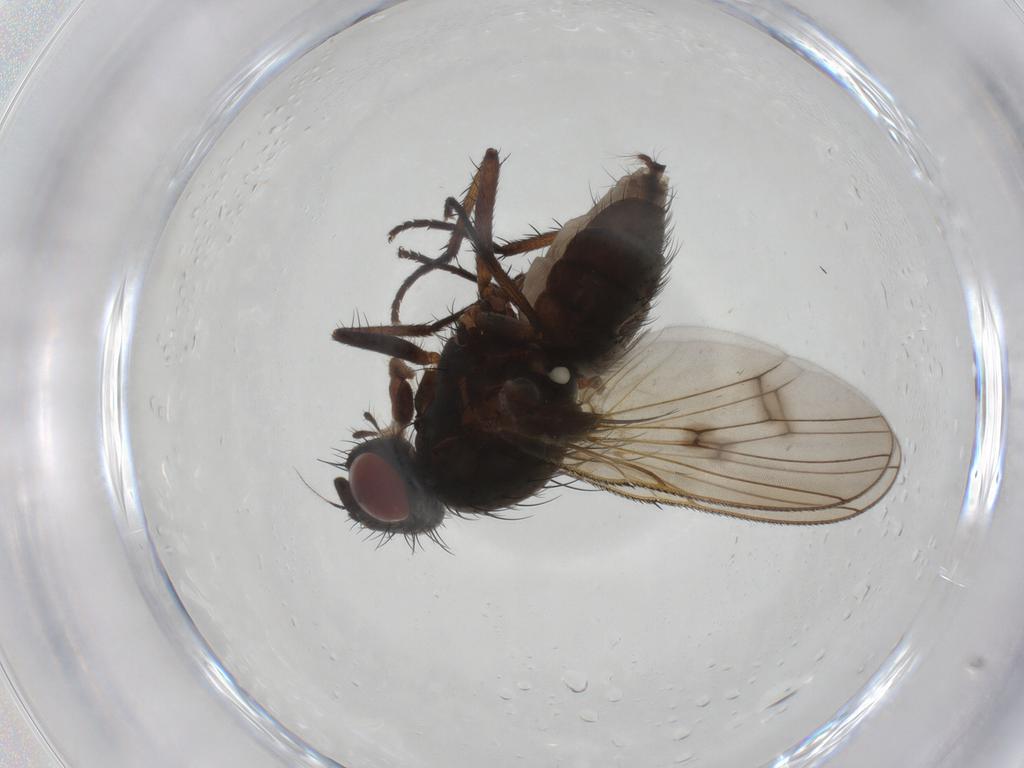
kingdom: Animalia
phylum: Arthropoda
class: Insecta
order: Diptera
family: Anthomyiidae
